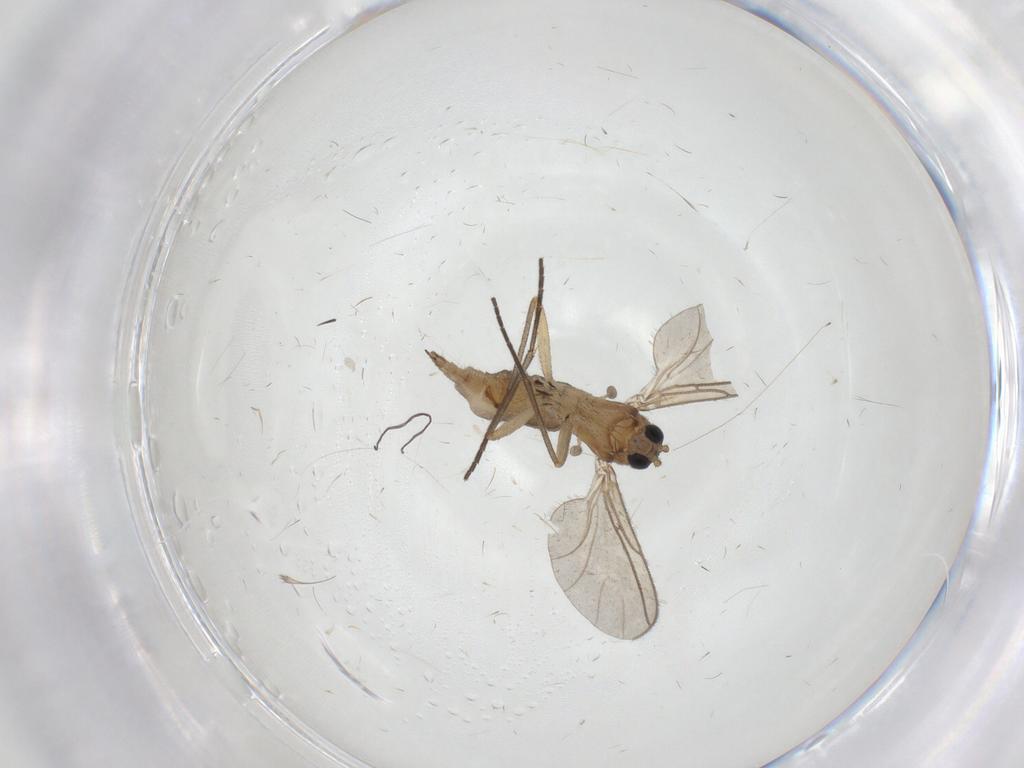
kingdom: Animalia
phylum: Arthropoda
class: Insecta
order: Diptera
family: Sciaridae
